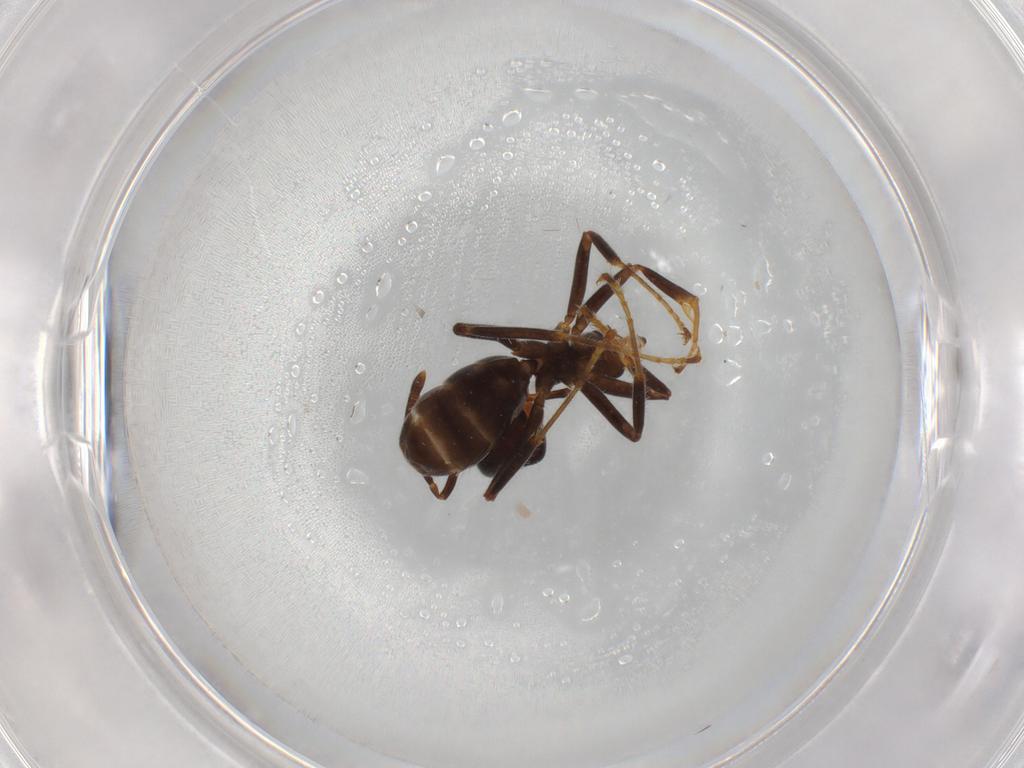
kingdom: Animalia
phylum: Arthropoda
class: Insecta
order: Hymenoptera
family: Formicidae
